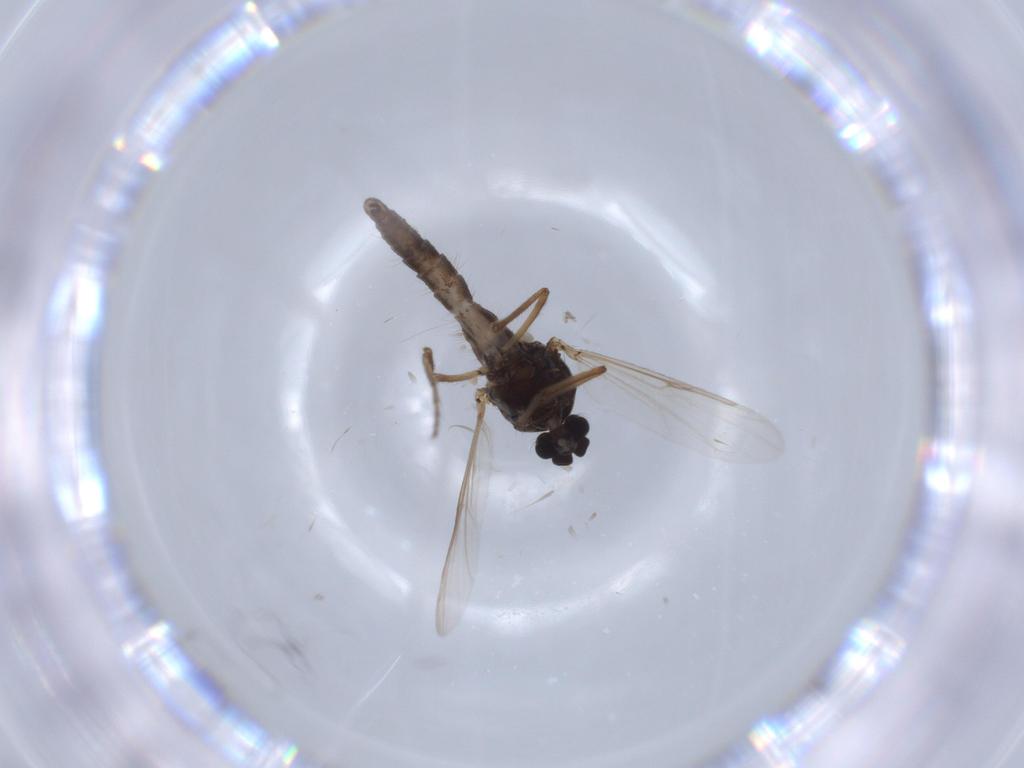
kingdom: Animalia
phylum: Arthropoda
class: Insecta
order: Diptera
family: Ceratopogonidae
